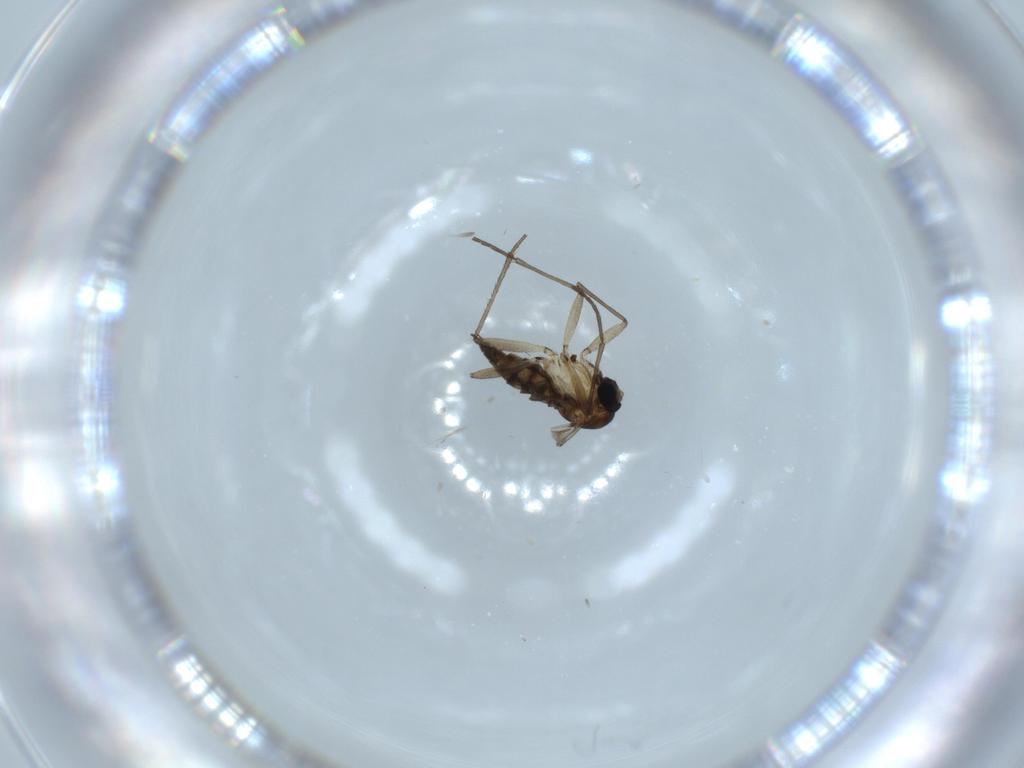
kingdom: Animalia
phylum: Arthropoda
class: Insecta
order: Diptera
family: Sciaridae
